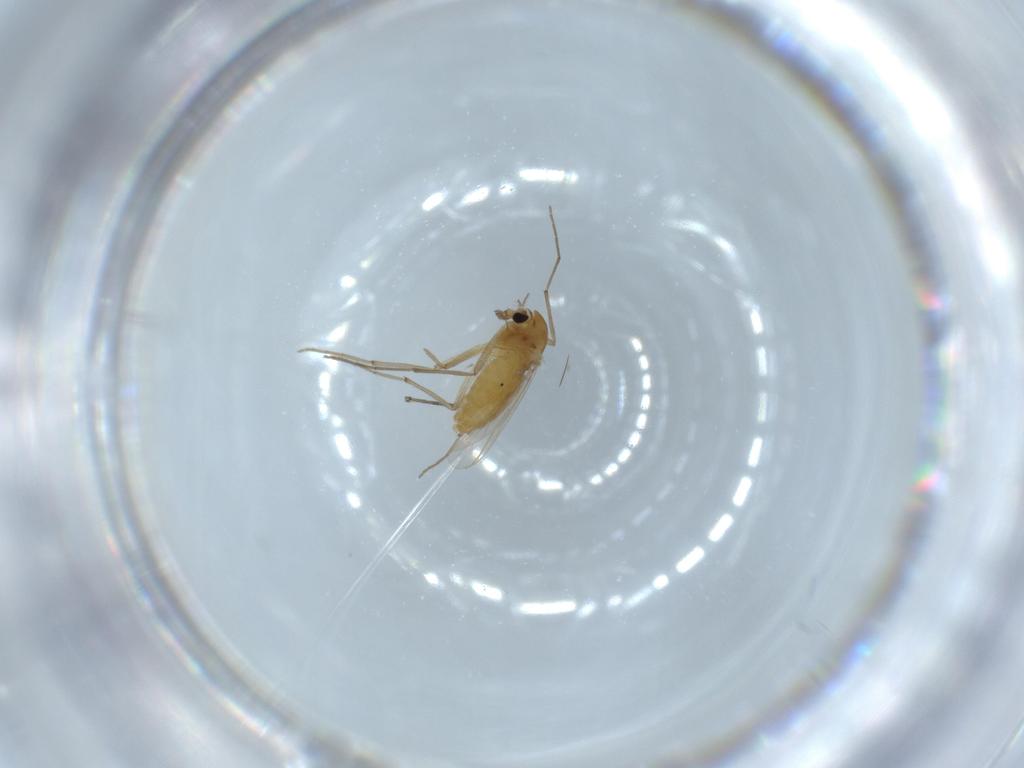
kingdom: Animalia
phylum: Arthropoda
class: Insecta
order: Diptera
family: Chironomidae
